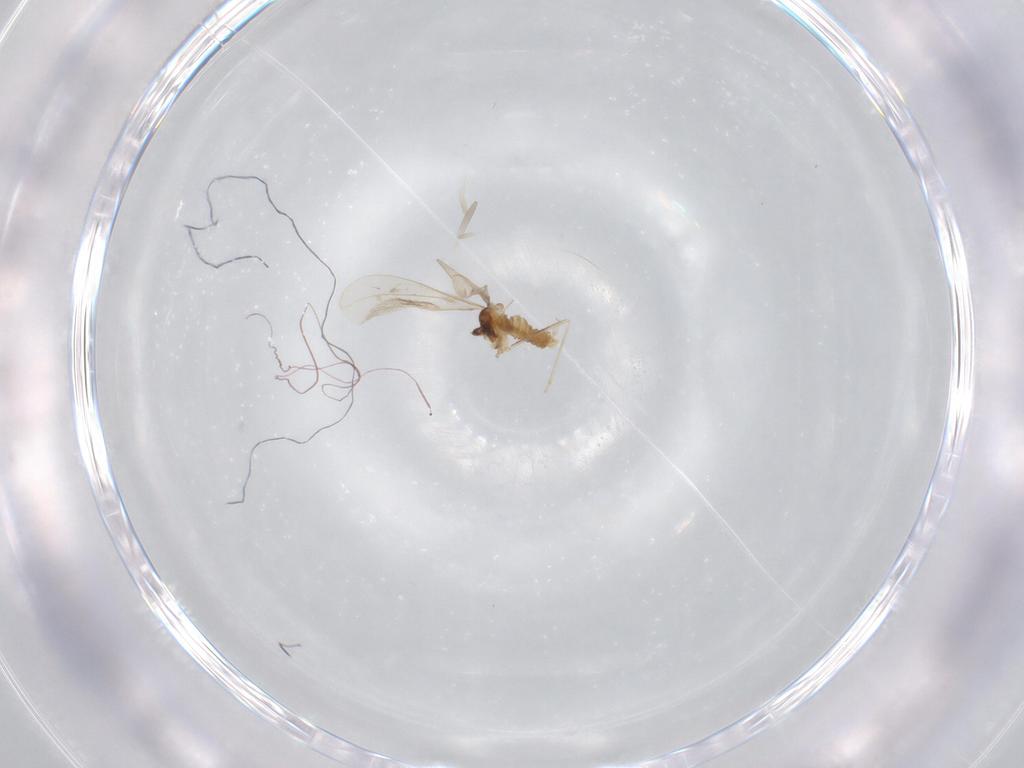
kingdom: Animalia
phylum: Arthropoda
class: Insecta
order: Diptera
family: Cecidomyiidae
